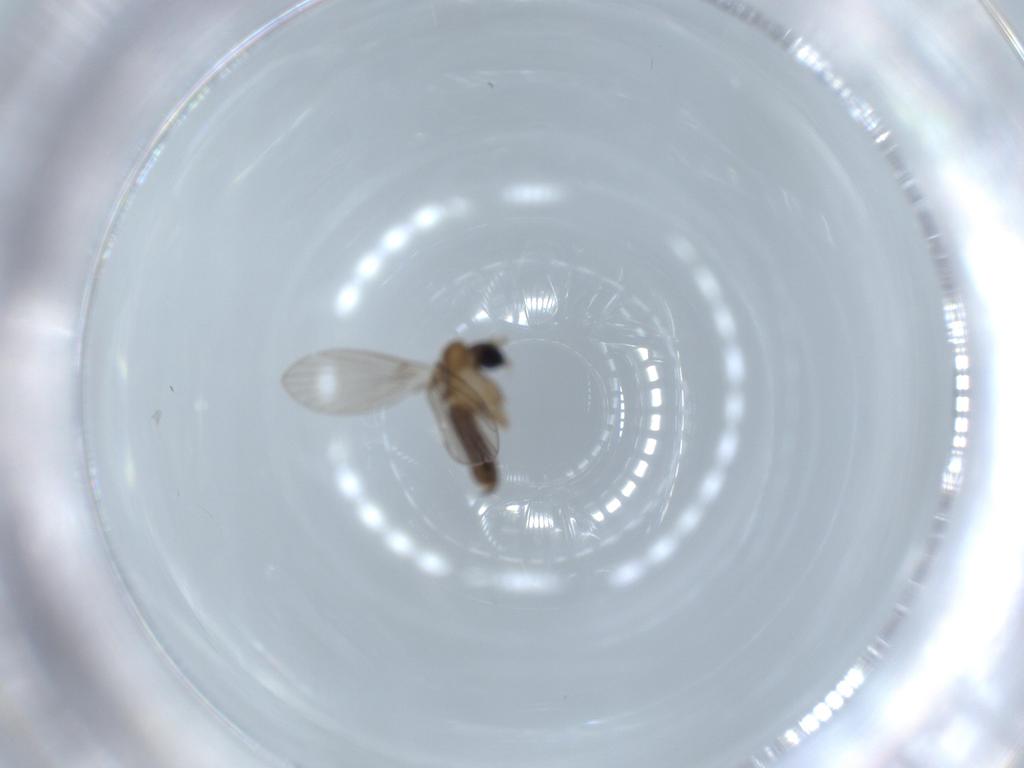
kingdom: Animalia
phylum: Arthropoda
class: Insecta
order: Diptera
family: Psychodidae
